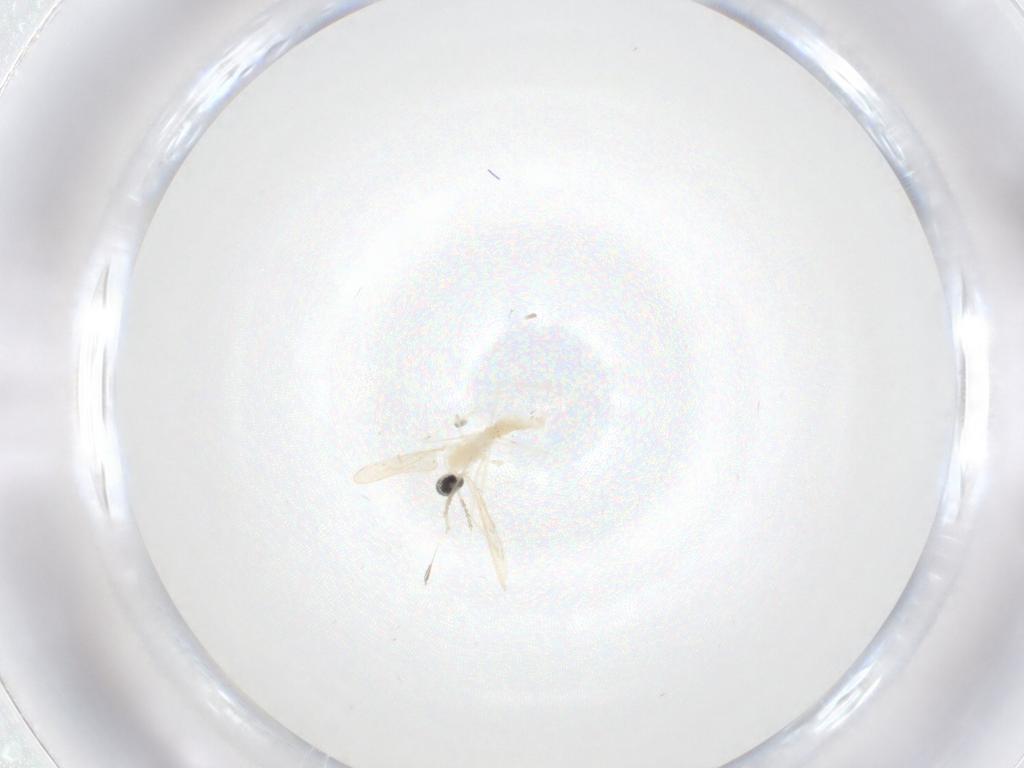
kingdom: Animalia
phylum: Arthropoda
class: Insecta
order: Diptera
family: Cecidomyiidae
